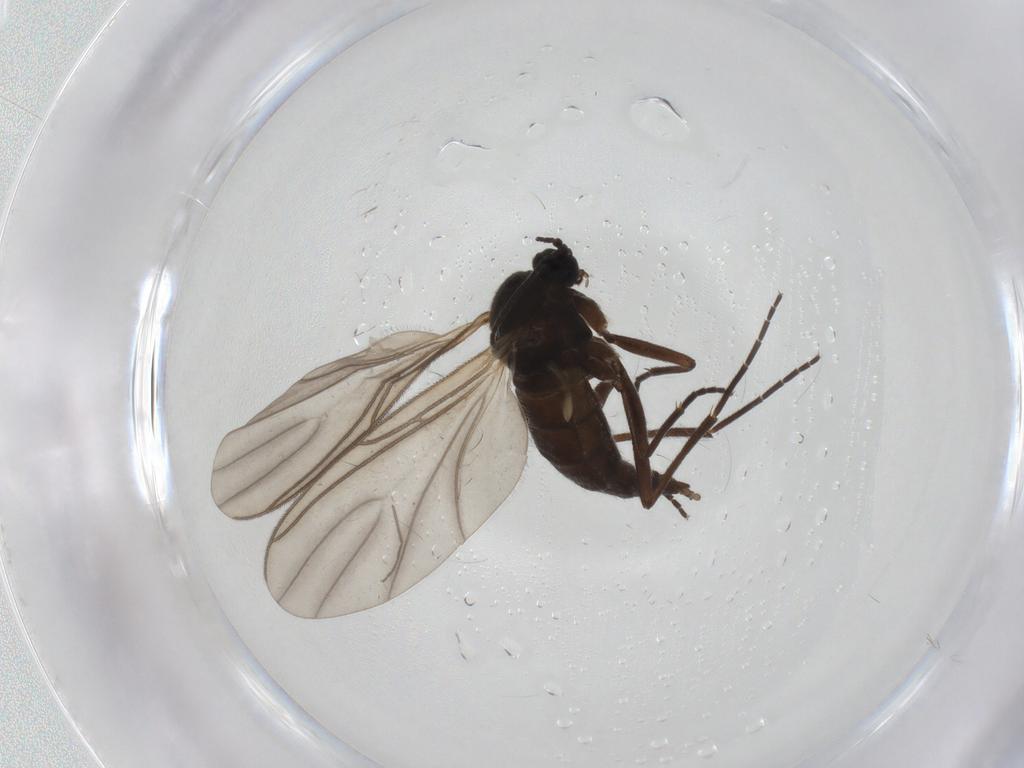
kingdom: Animalia
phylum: Arthropoda
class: Insecta
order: Diptera
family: Sciaridae
